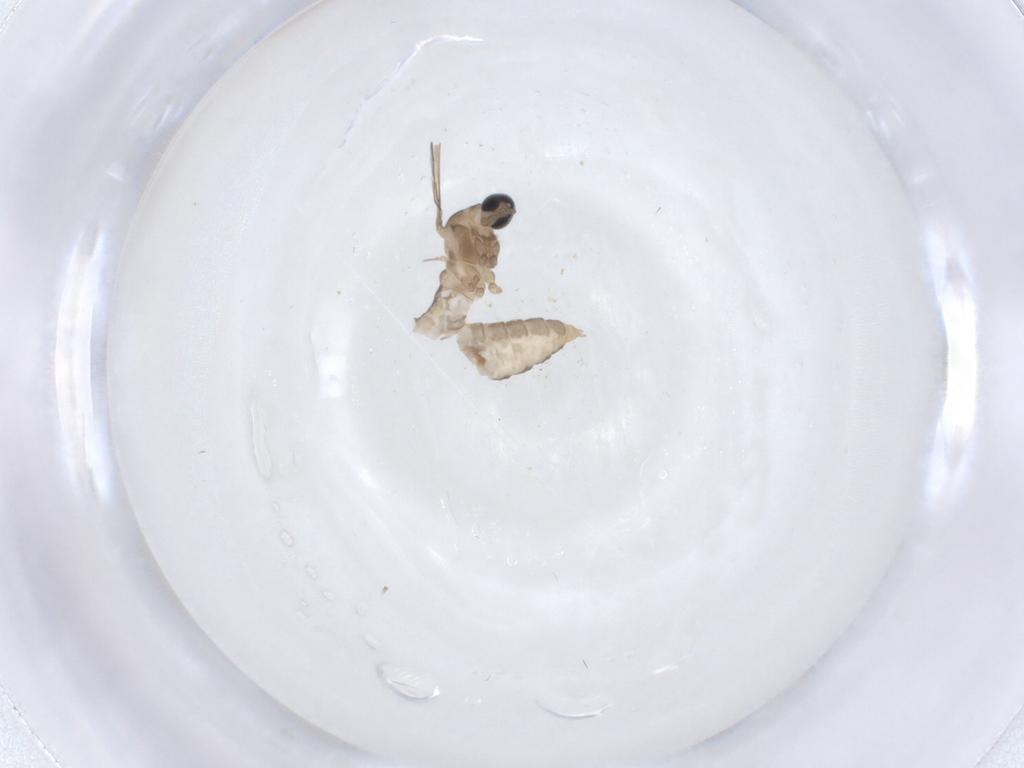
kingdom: Animalia
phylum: Arthropoda
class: Insecta
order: Diptera
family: Cecidomyiidae
